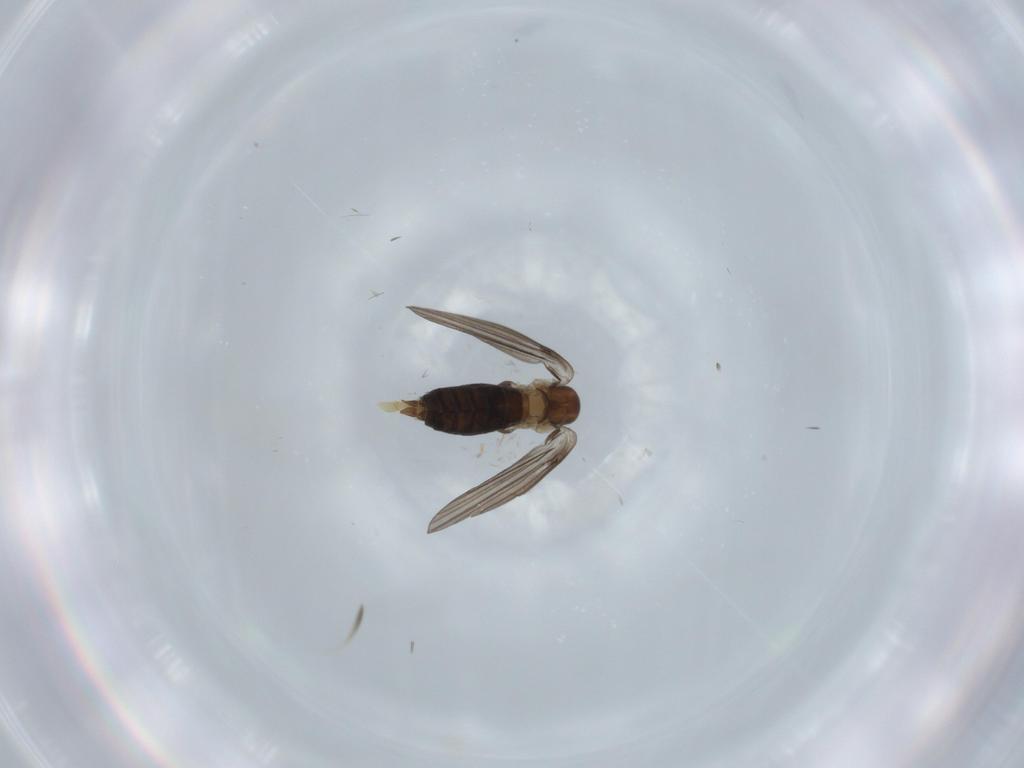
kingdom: Animalia
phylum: Arthropoda
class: Insecta
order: Diptera
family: Psychodidae
